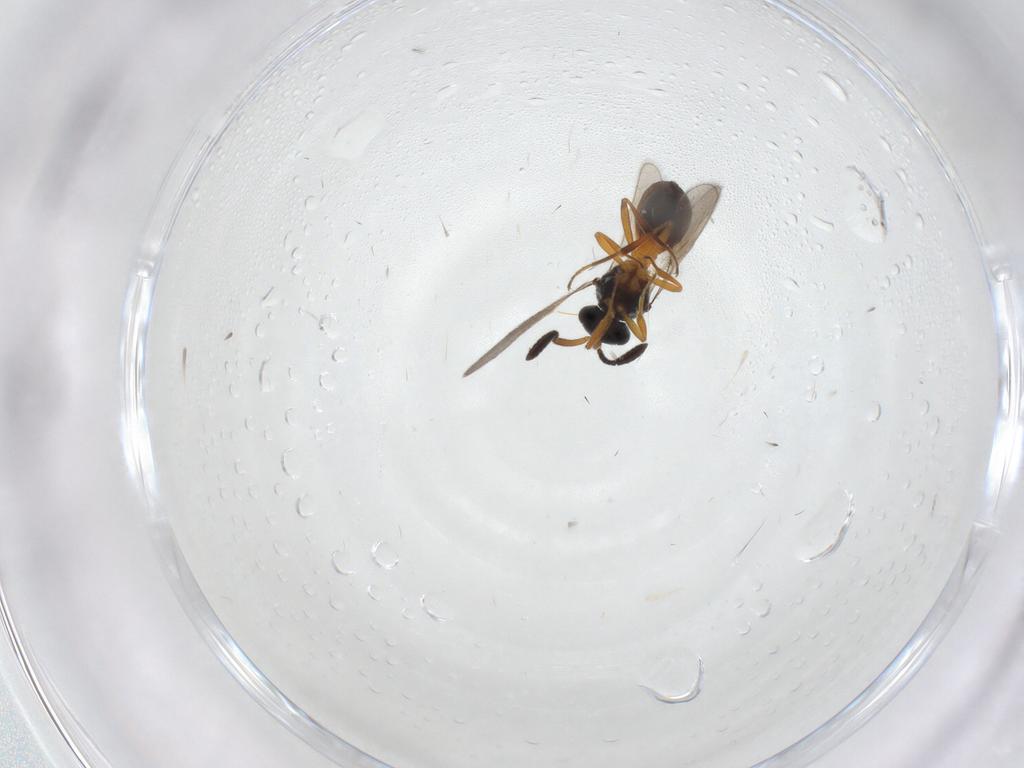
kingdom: Animalia
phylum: Arthropoda
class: Insecta
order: Hymenoptera
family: Scelionidae
